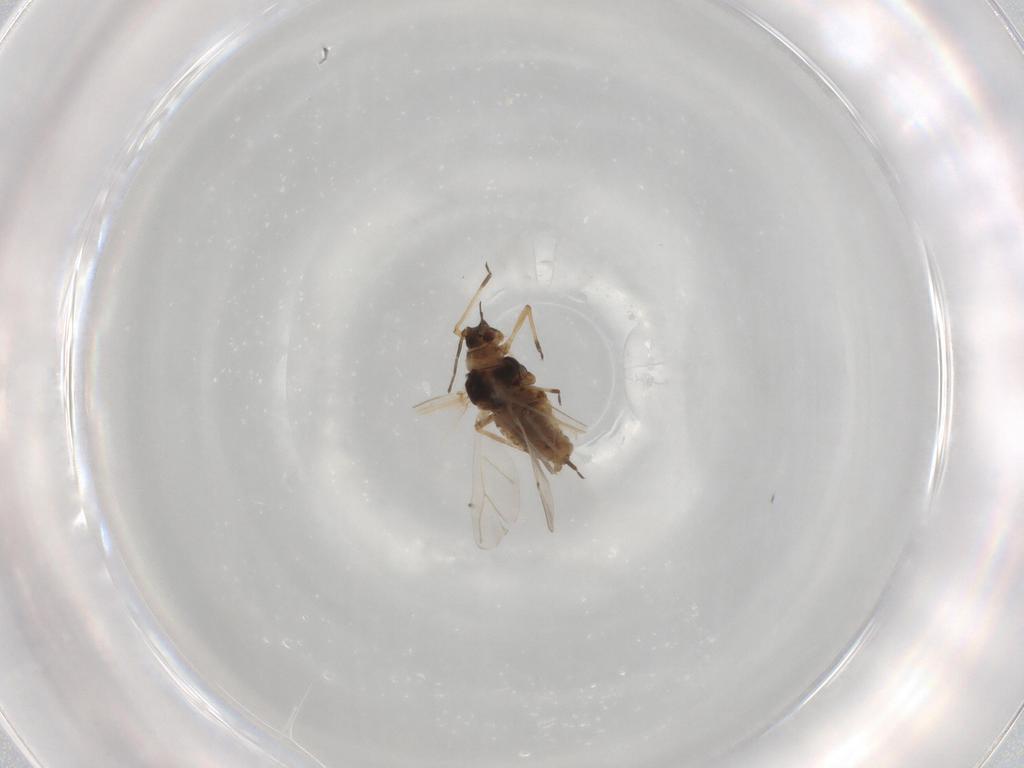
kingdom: Animalia
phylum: Arthropoda
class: Insecta
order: Hemiptera
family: Aphididae
